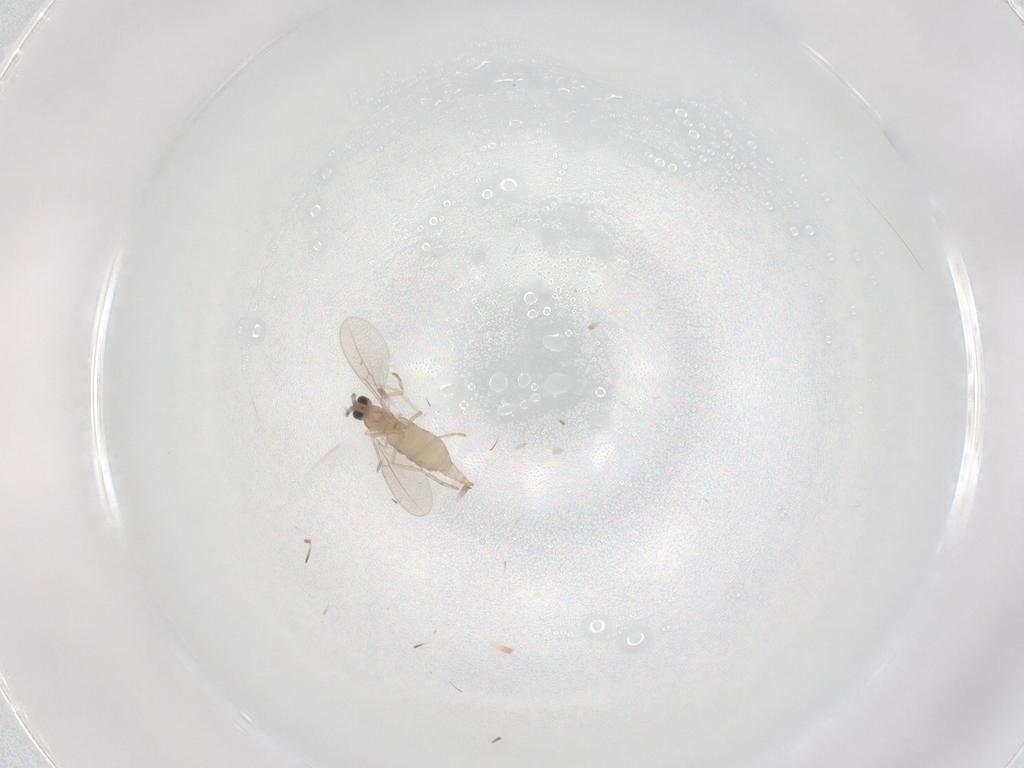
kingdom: Animalia
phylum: Arthropoda
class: Insecta
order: Diptera
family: Cecidomyiidae
